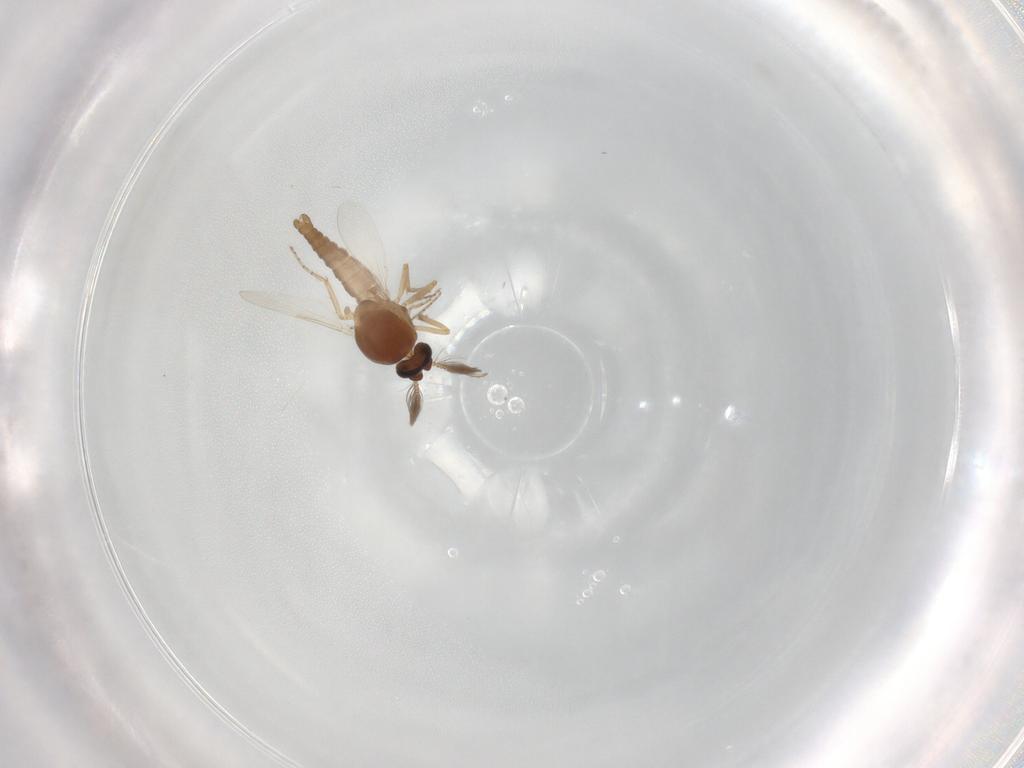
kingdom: Animalia
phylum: Arthropoda
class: Insecta
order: Diptera
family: Ceratopogonidae
